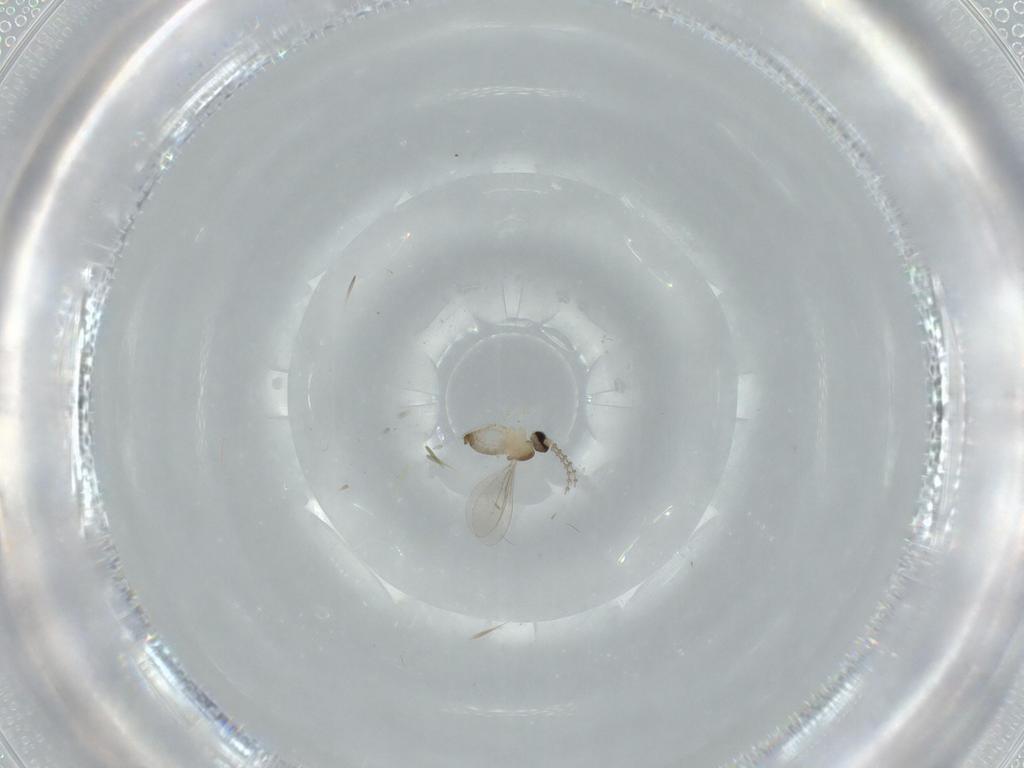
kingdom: Animalia
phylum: Arthropoda
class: Insecta
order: Diptera
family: Cecidomyiidae
